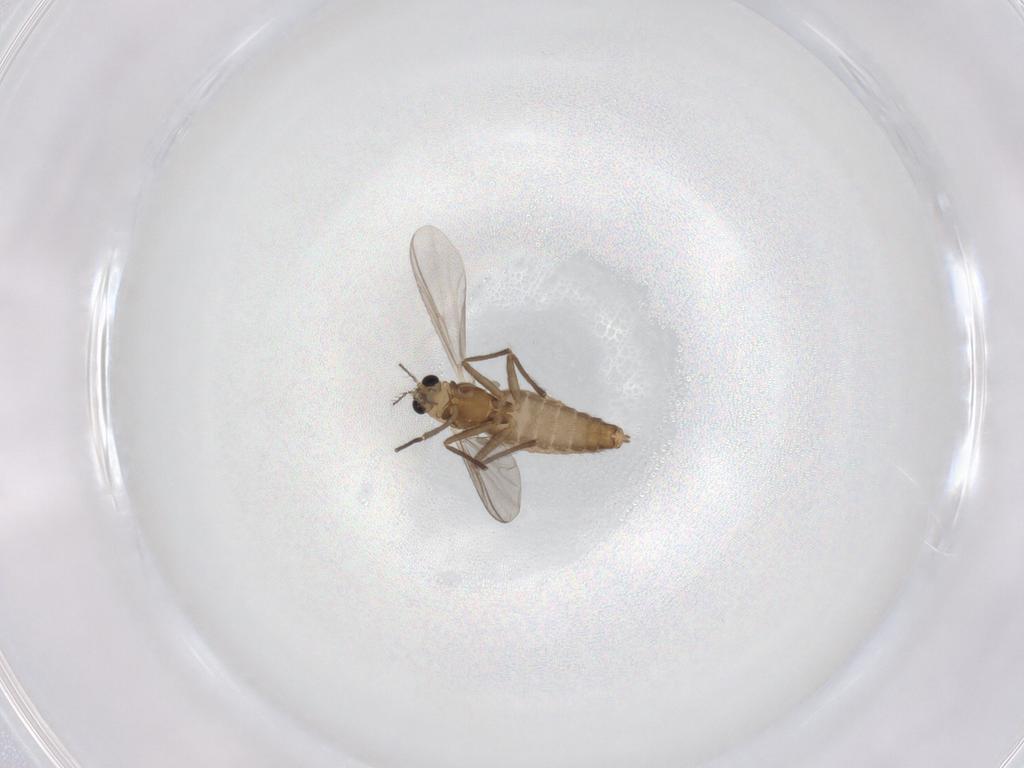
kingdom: Animalia
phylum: Arthropoda
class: Insecta
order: Diptera
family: Chironomidae
